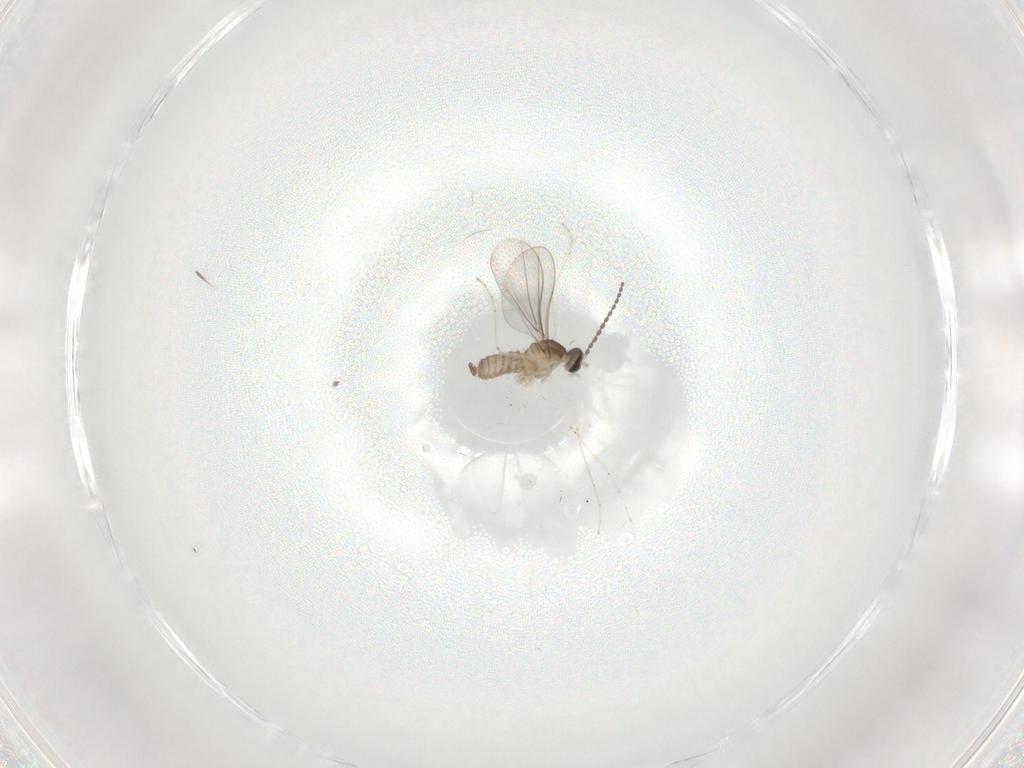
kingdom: Animalia
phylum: Arthropoda
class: Insecta
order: Diptera
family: Cecidomyiidae
